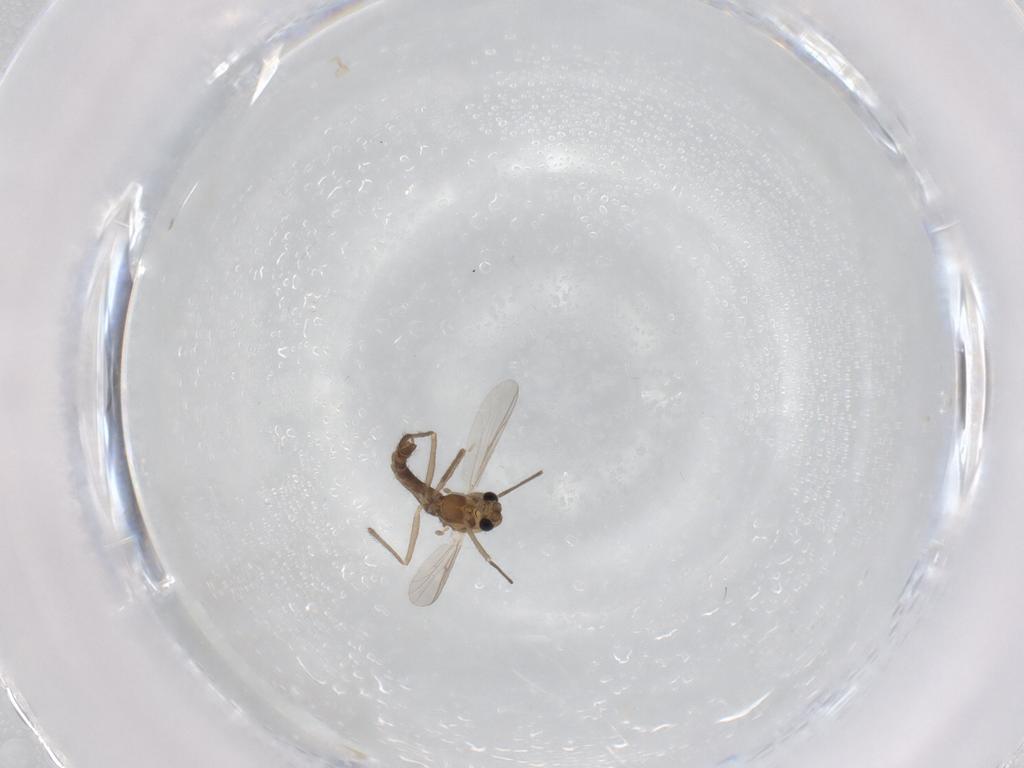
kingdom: Animalia
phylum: Arthropoda
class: Insecta
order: Diptera
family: Chironomidae
